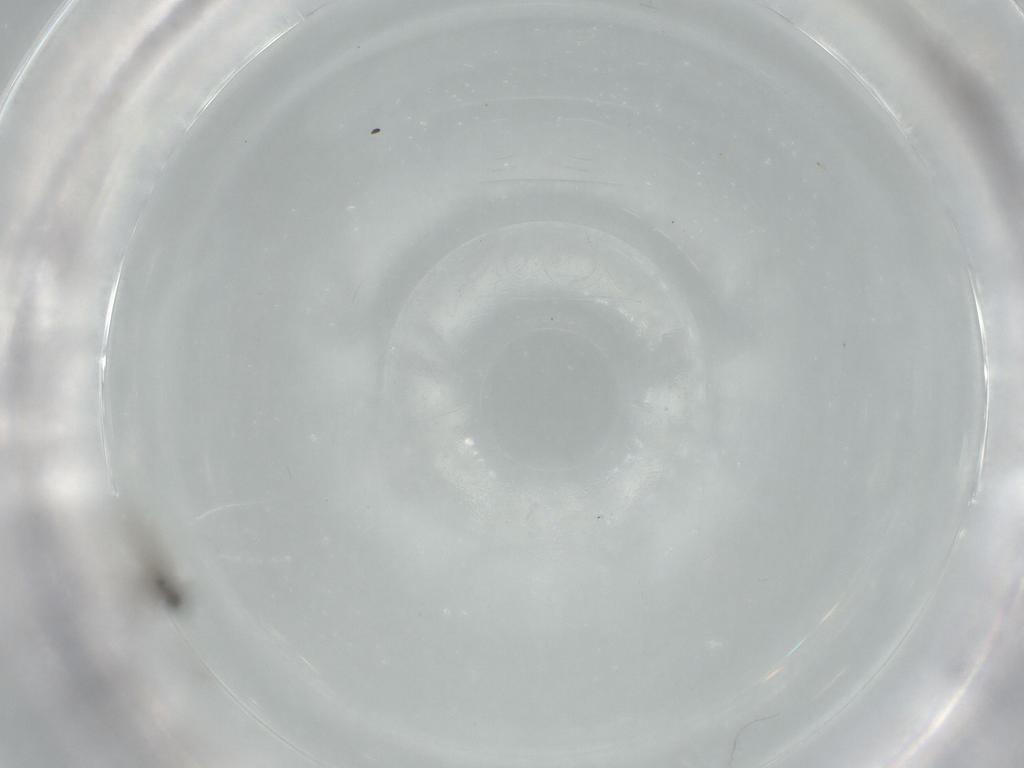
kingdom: Animalia
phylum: Arthropoda
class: Insecta
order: Diptera
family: Cecidomyiidae
